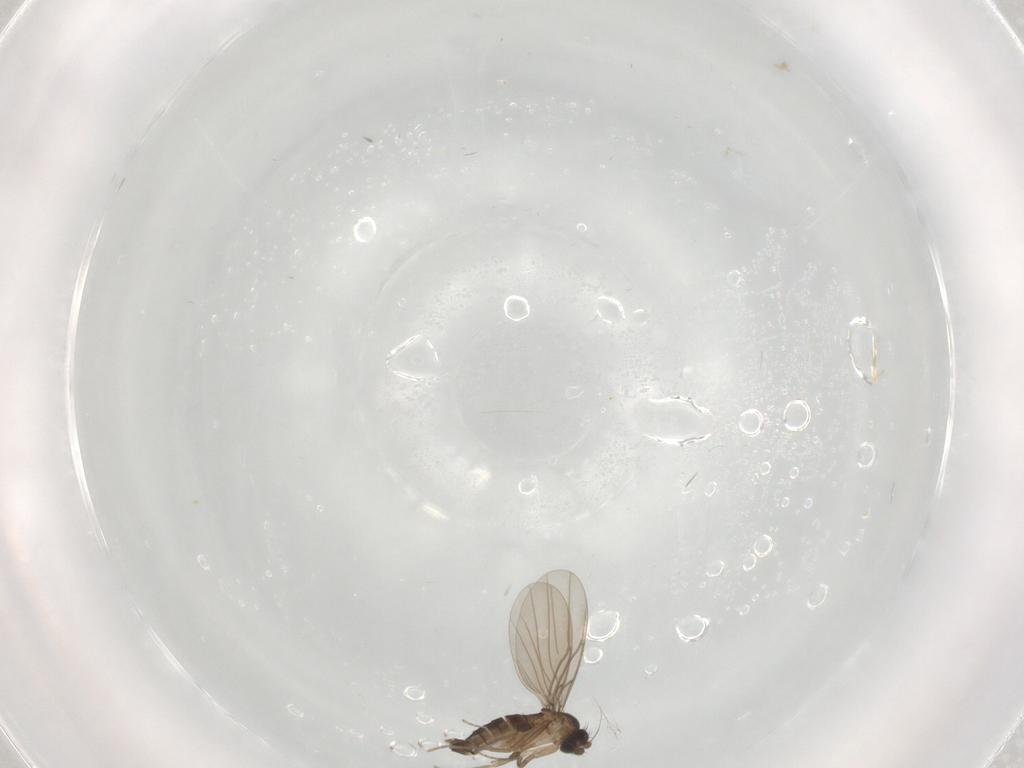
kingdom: Animalia
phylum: Arthropoda
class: Insecta
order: Diptera
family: Phoridae
